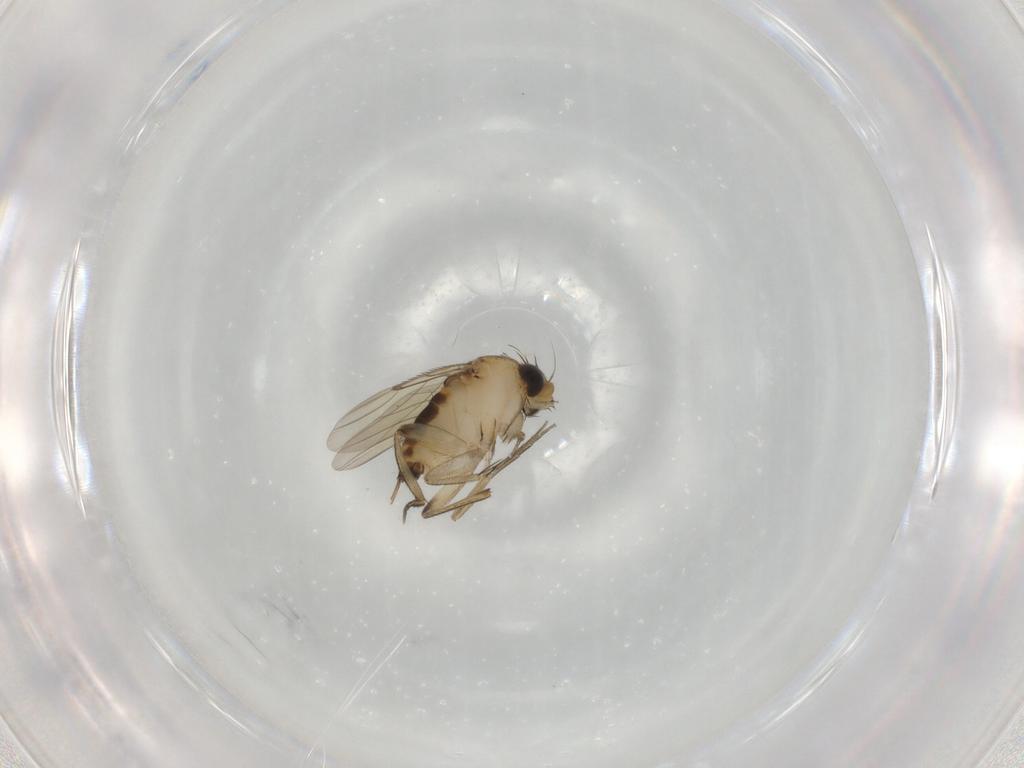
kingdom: Animalia
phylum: Arthropoda
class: Insecta
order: Diptera
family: Phoridae
